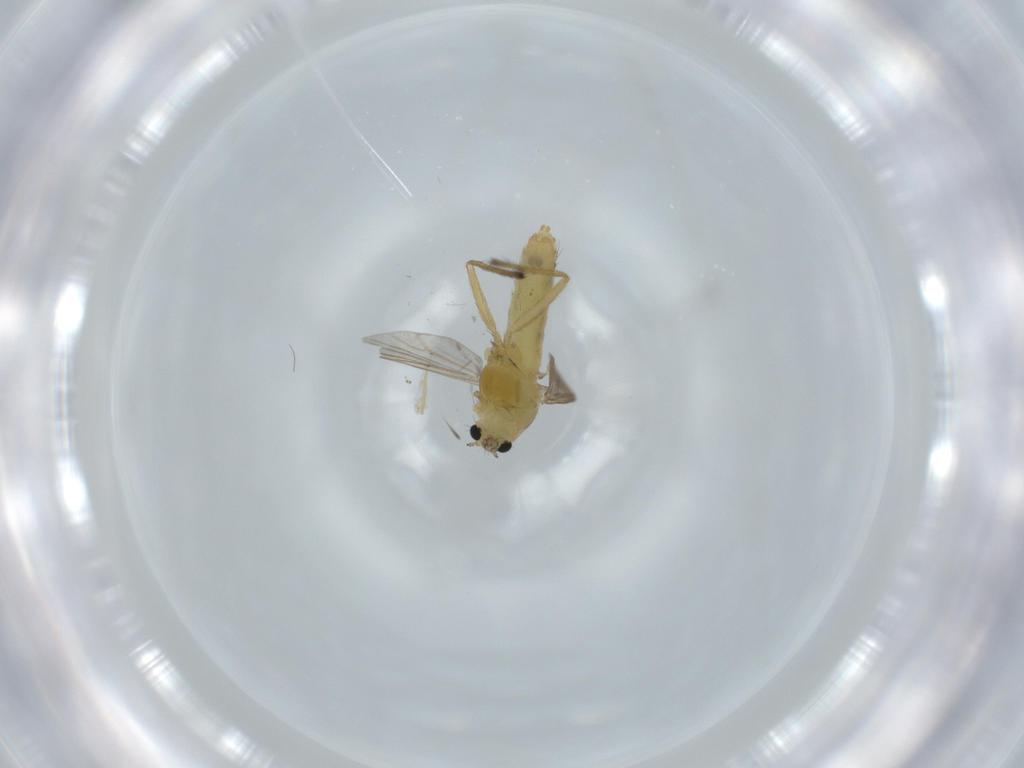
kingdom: Animalia
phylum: Arthropoda
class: Insecta
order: Diptera
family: Chironomidae
